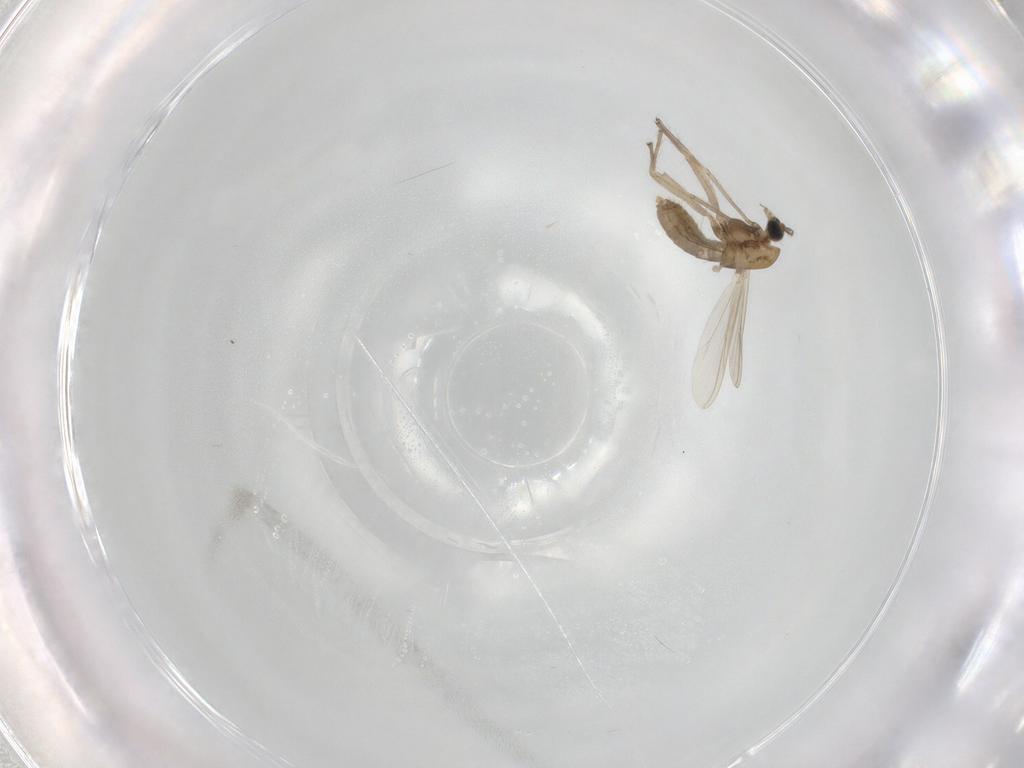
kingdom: Animalia
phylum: Arthropoda
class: Insecta
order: Diptera
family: Chironomidae
